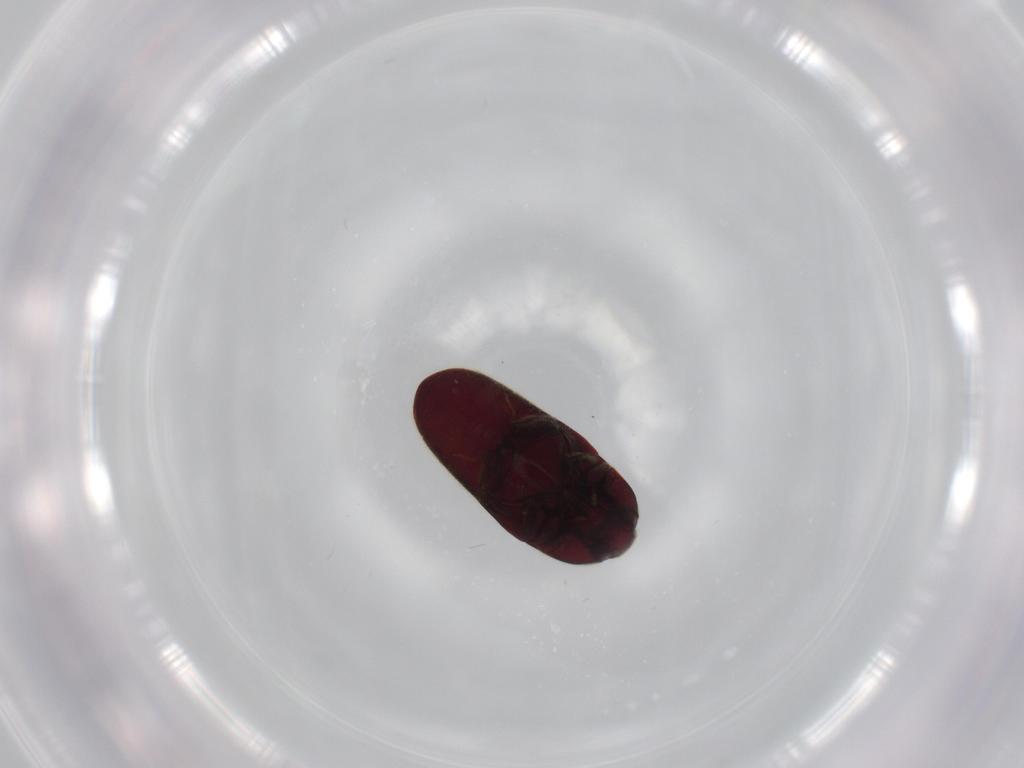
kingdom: Animalia
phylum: Arthropoda
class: Insecta
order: Coleoptera
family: Throscidae
